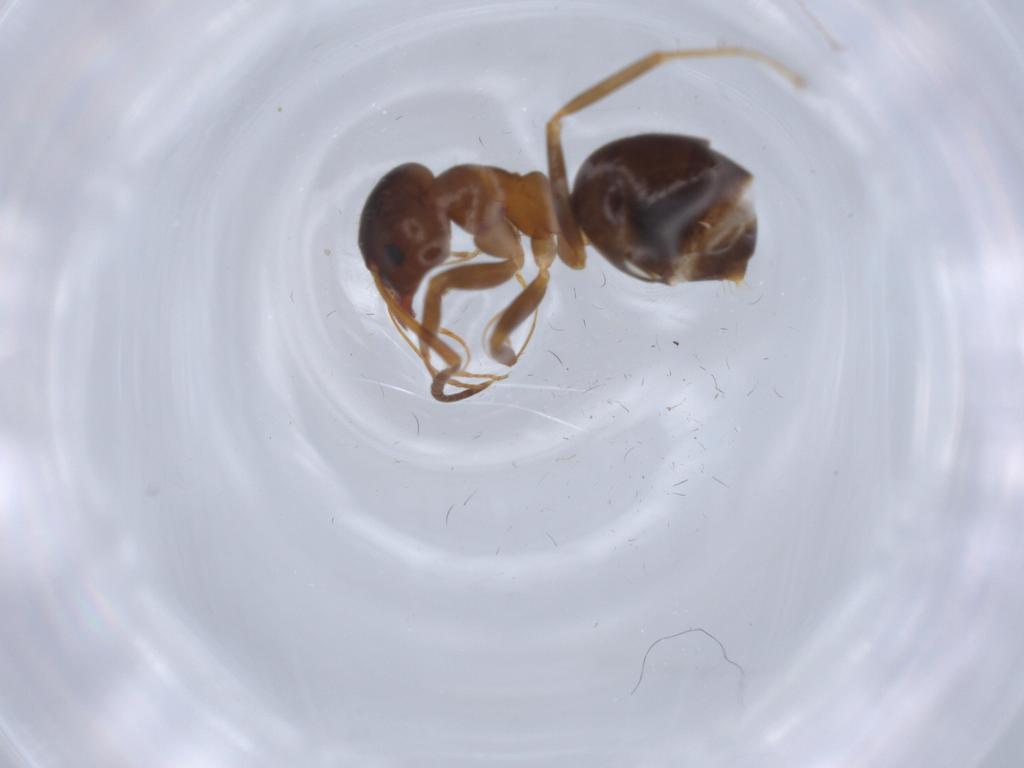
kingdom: Animalia
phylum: Arthropoda
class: Insecta
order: Hymenoptera
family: Formicidae
